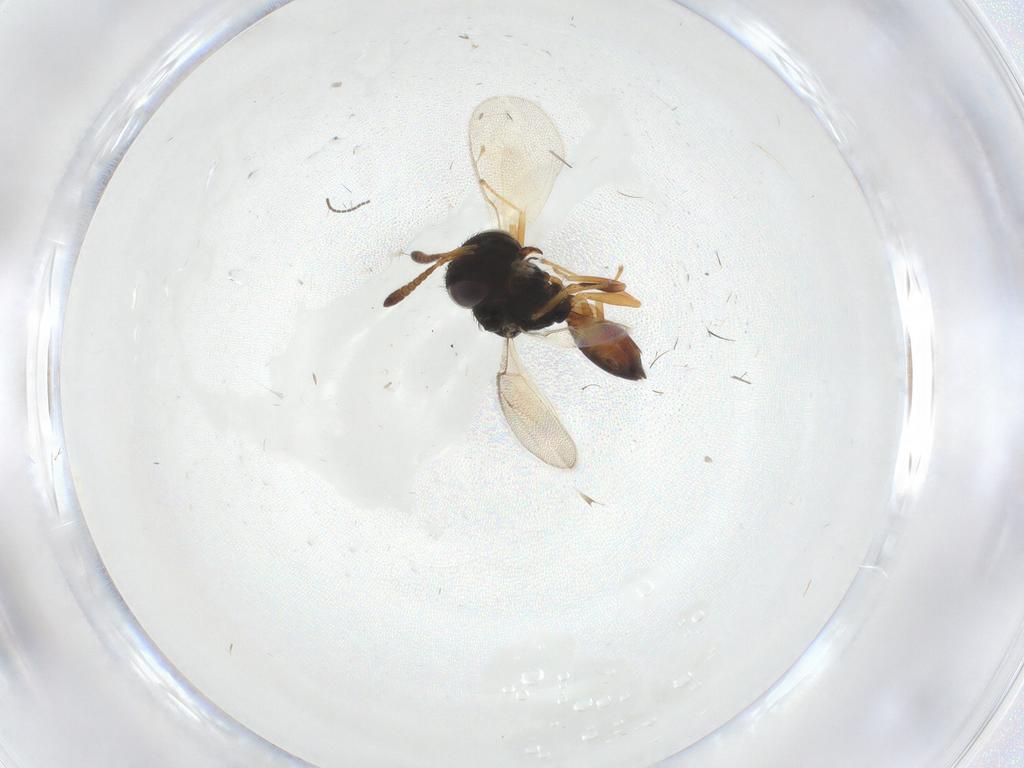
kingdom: Animalia
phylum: Arthropoda
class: Insecta
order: Hymenoptera
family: Pteromalidae
